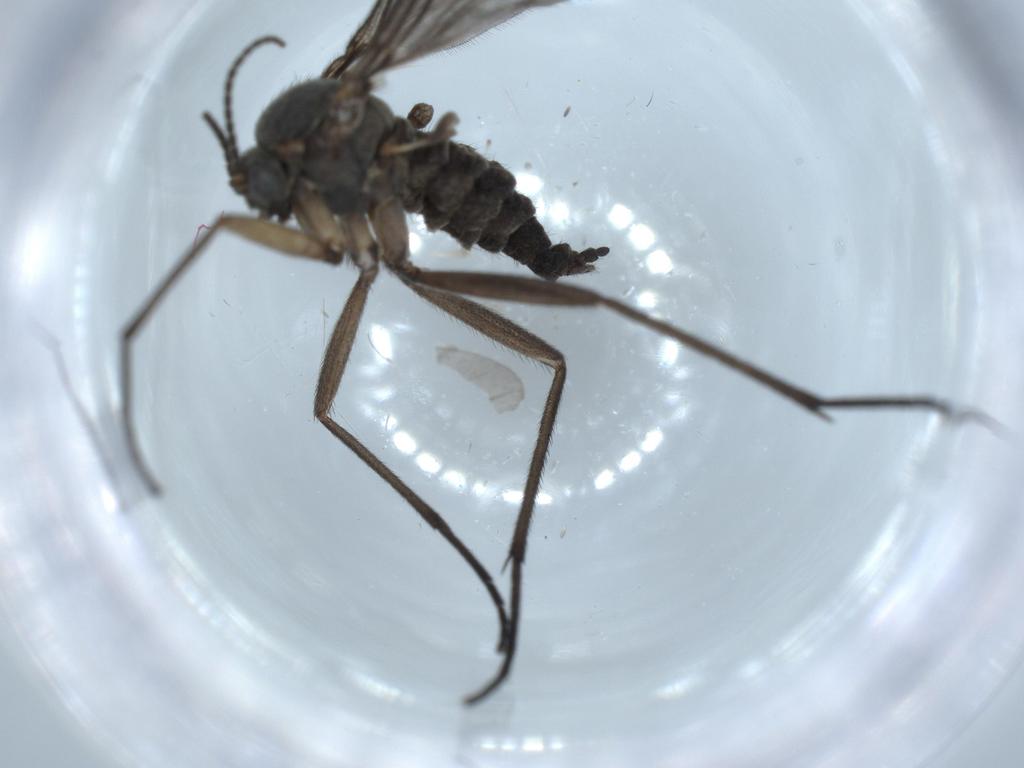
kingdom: Animalia
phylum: Arthropoda
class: Insecta
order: Diptera
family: Sciaridae
